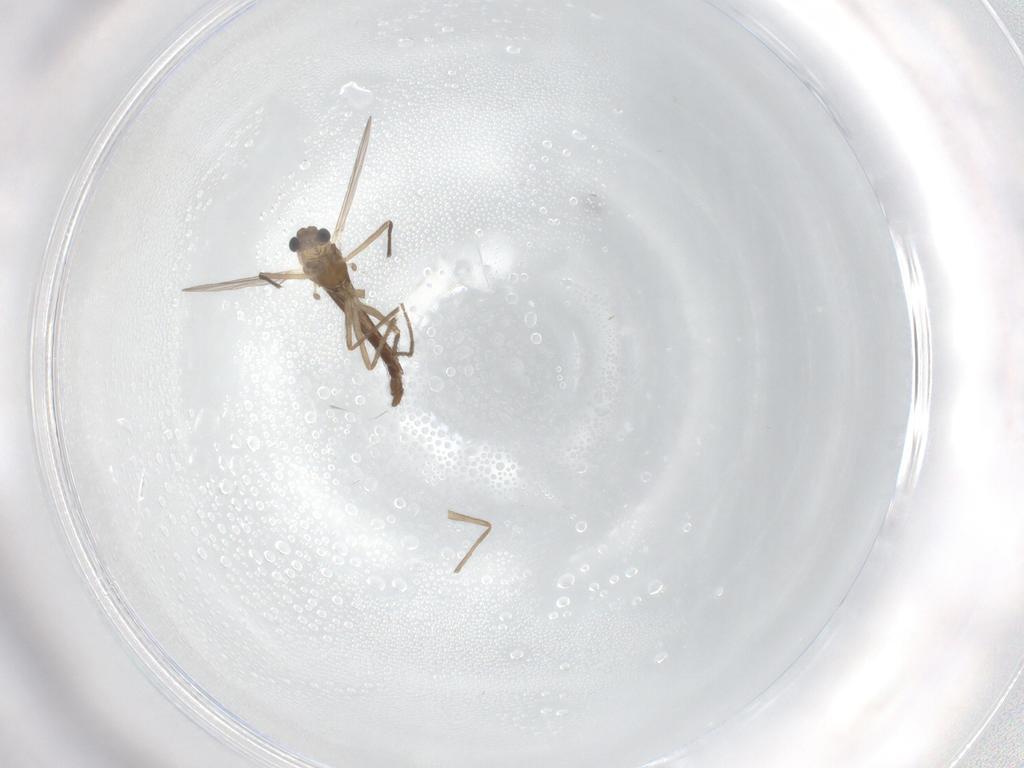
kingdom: Animalia
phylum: Arthropoda
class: Insecta
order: Diptera
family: Chironomidae
